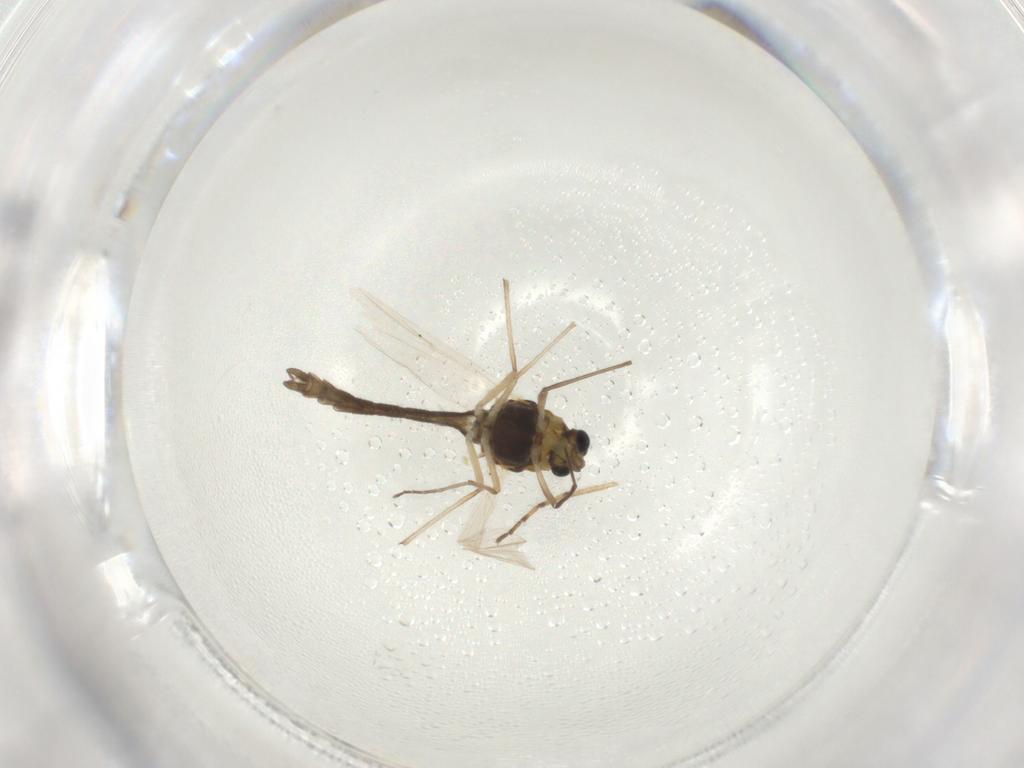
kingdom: Animalia
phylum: Arthropoda
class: Insecta
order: Diptera
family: Chironomidae
